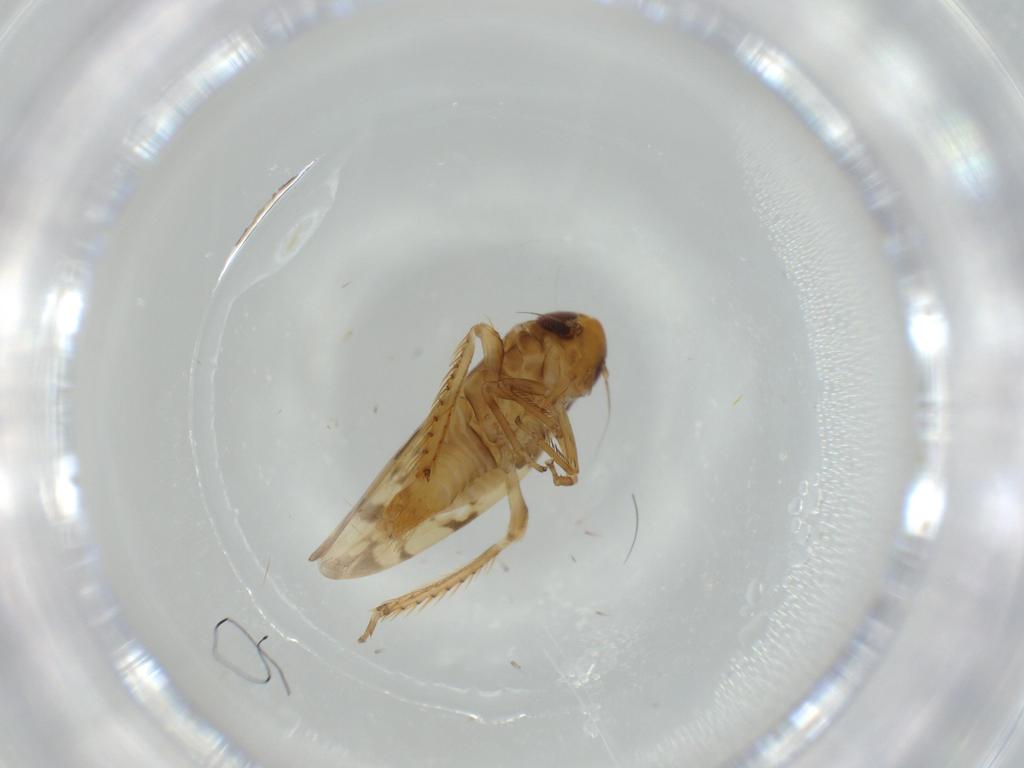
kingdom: Animalia
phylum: Arthropoda
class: Insecta
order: Hemiptera
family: Cicadellidae
